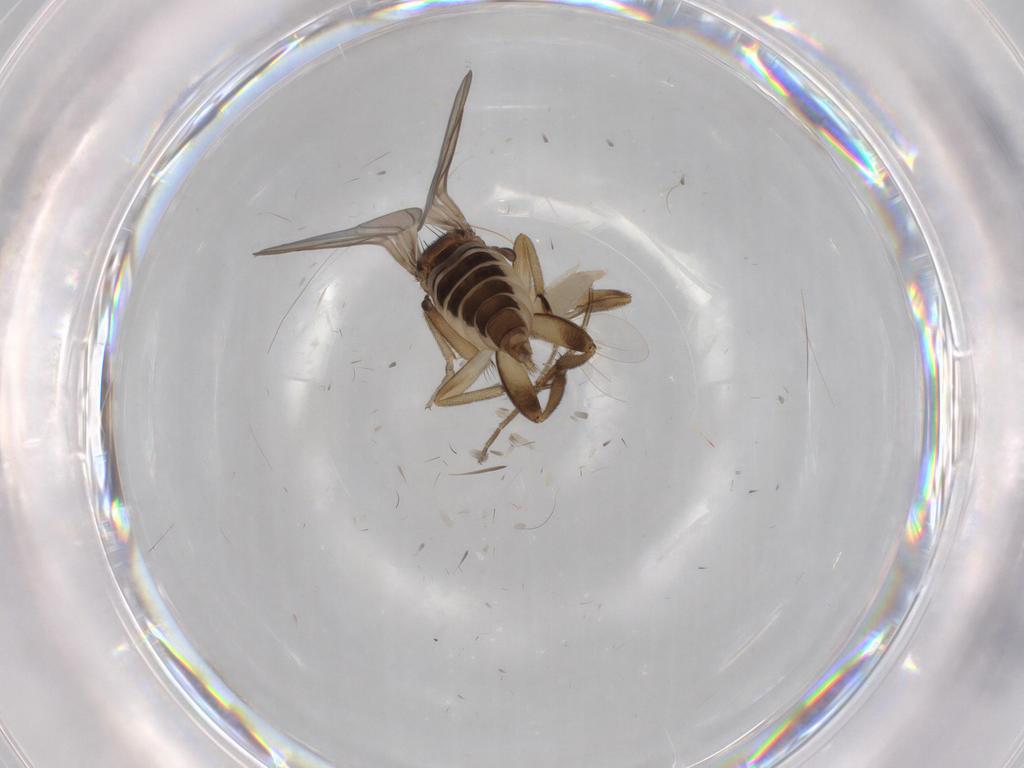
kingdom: Animalia
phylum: Arthropoda
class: Insecta
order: Diptera
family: Cecidomyiidae
